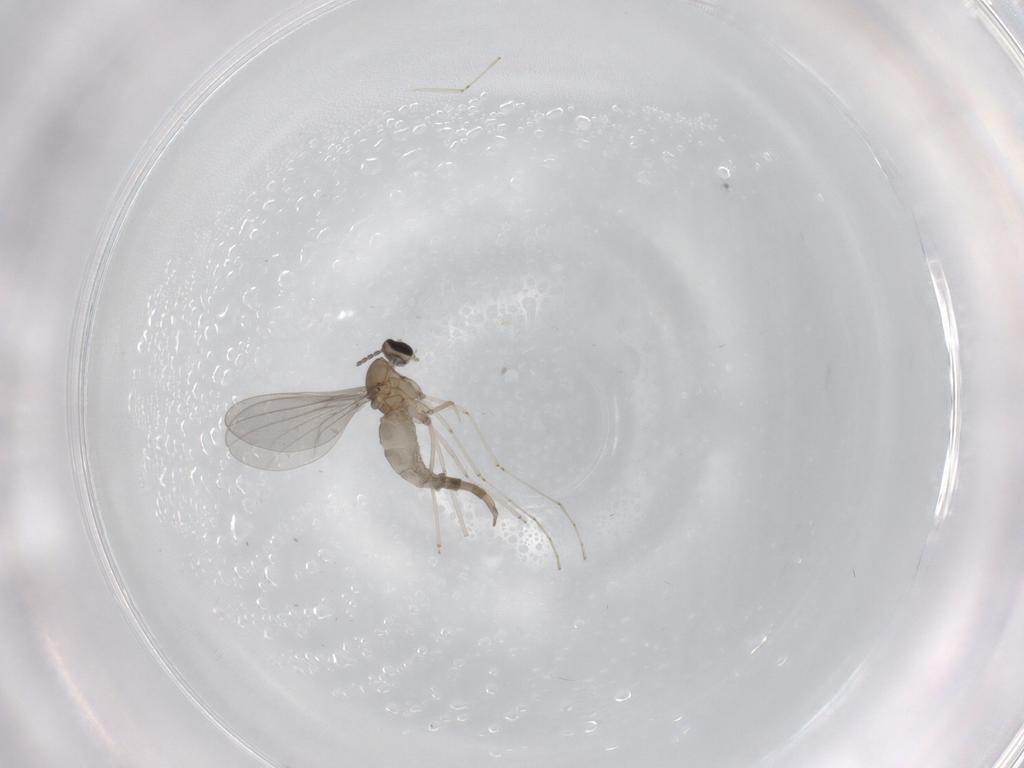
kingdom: Animalia
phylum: Arthropoda
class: Insecta
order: Diptera
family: Cecidomyiidae
